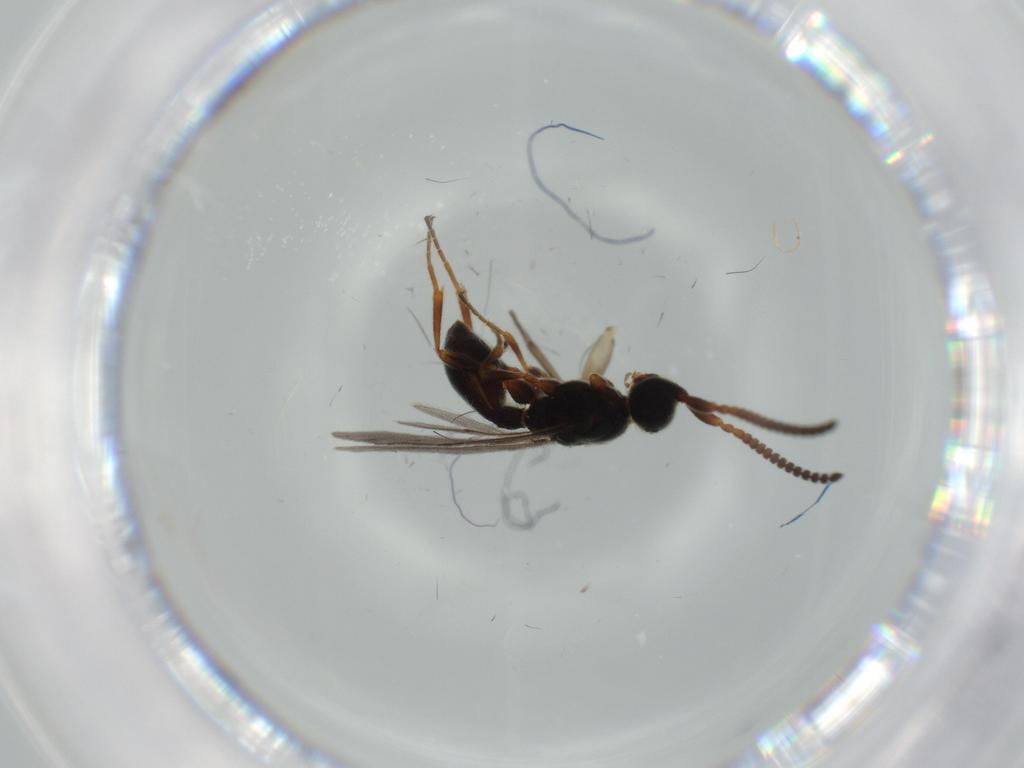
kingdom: Animalia
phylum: Arthropoda
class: Insecta
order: Hymenoptera
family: Braconidae
